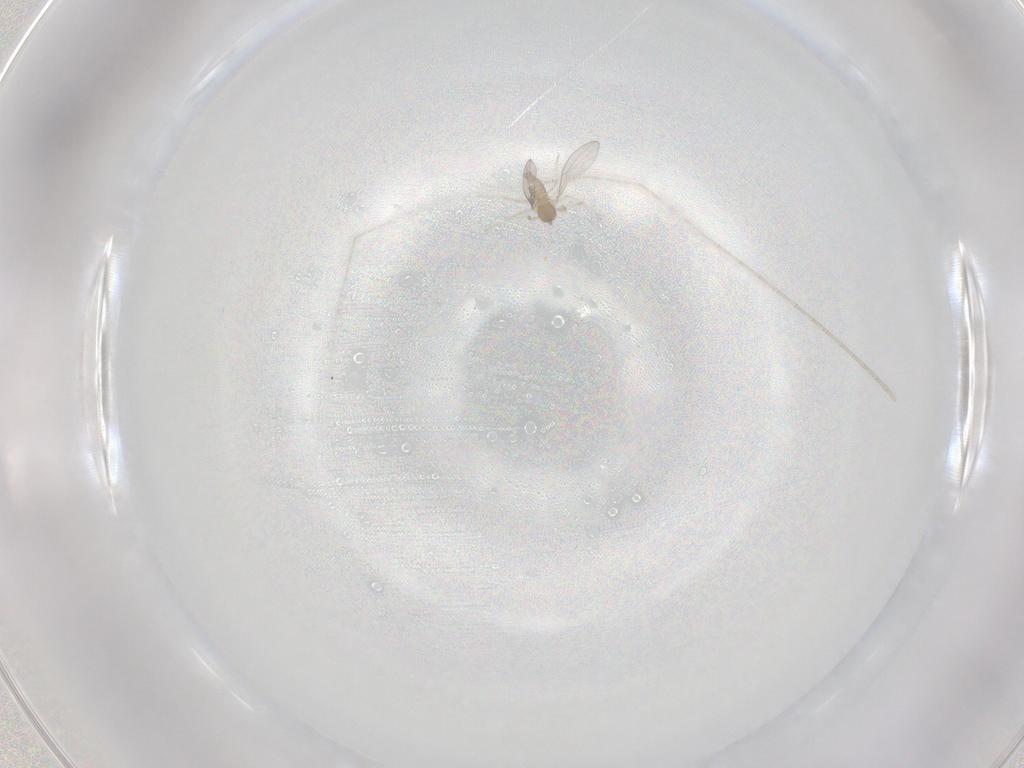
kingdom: Animalia
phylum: Arthropoda
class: Insecta
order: Diptera
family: Cecidomyiidae
